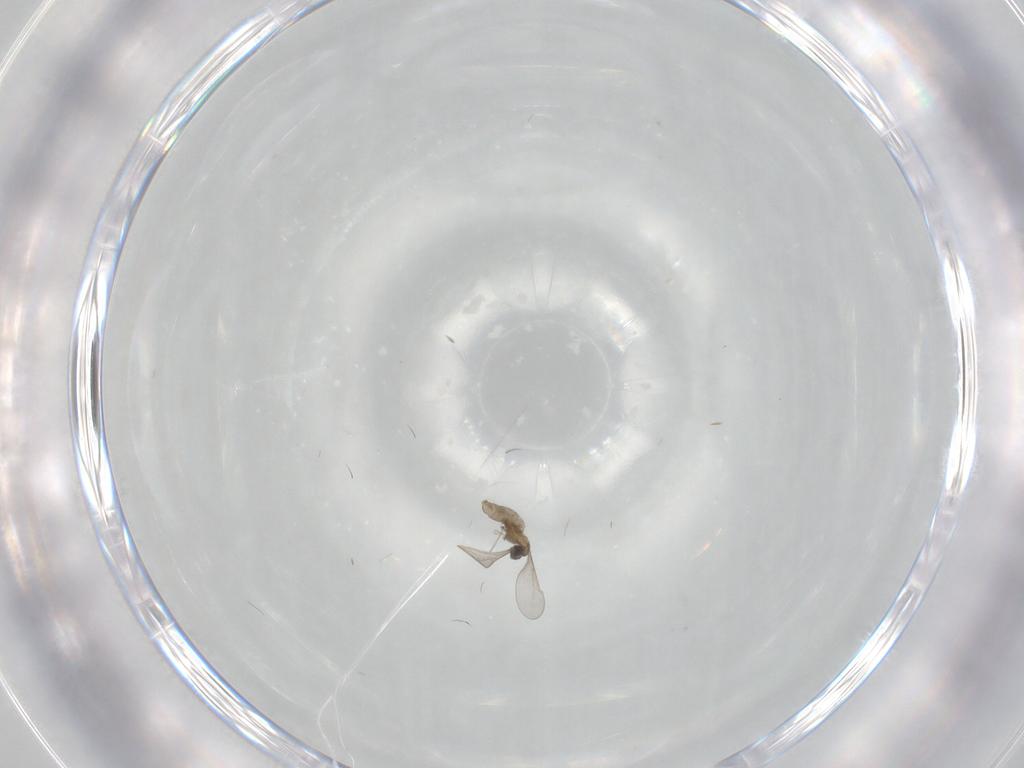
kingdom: Animalia
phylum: Arthropoda
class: Insecta
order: Diptera
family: Cecidomyiidae
